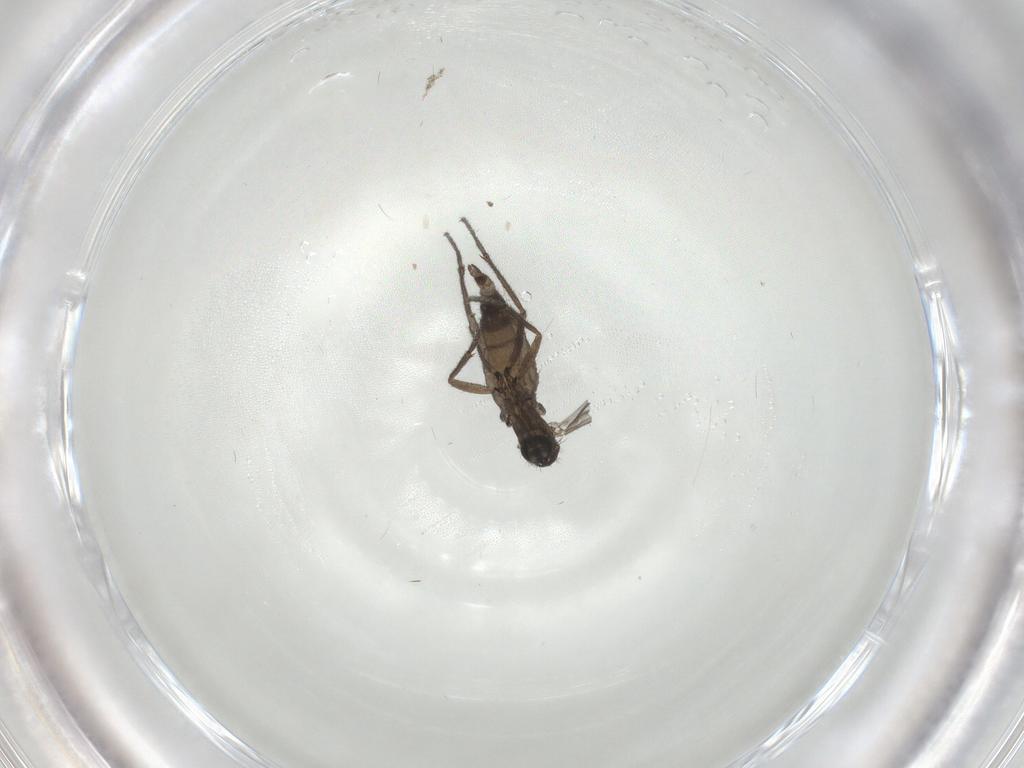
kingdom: Animalia
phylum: Arthropoda
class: Insecta
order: Diptera
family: Sciaridae
